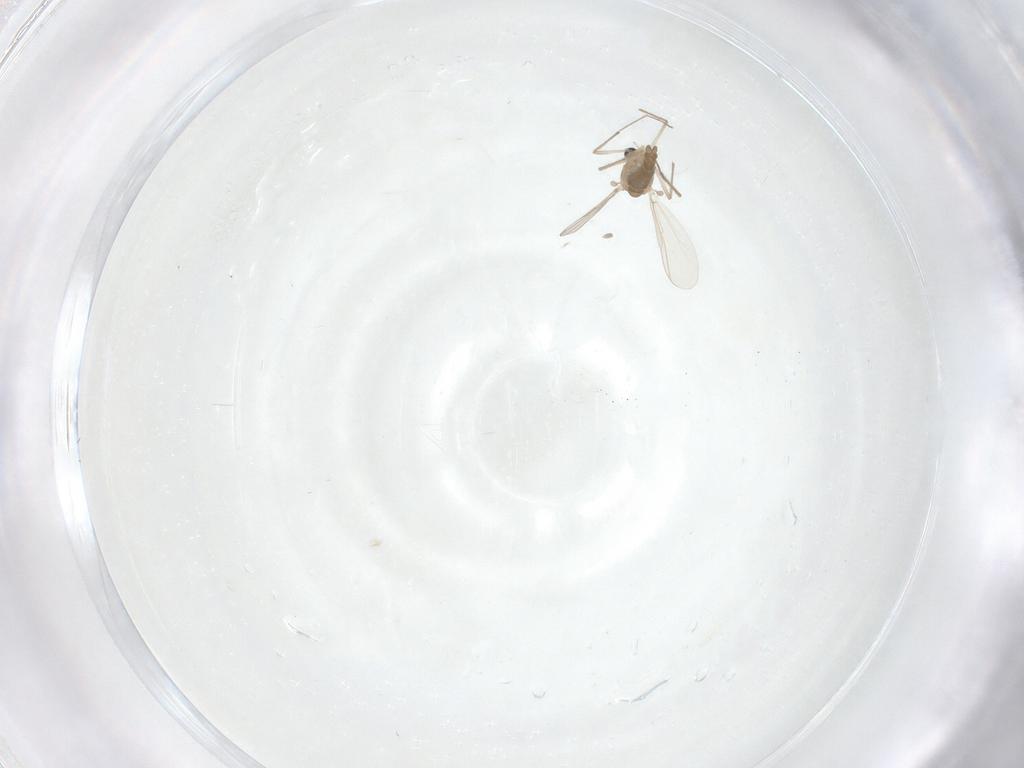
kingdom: Animalia
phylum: Arthropoda
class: Insecta
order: Diptera
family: Chironomidae
